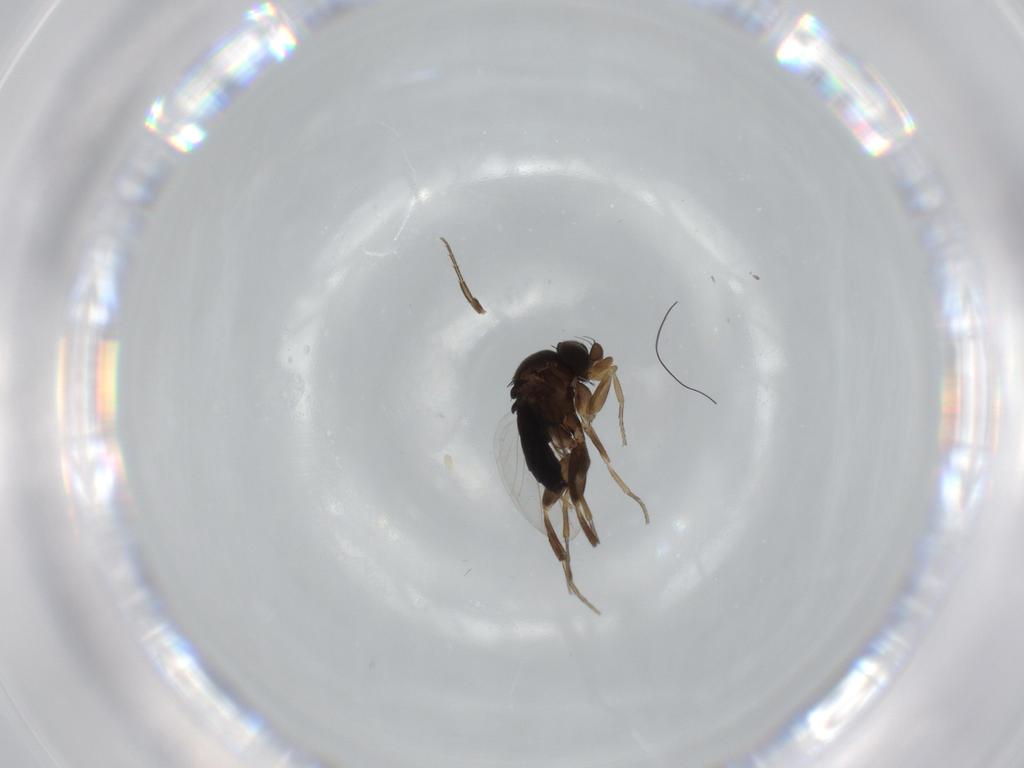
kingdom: Animalia
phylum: Arthropoda
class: Insecta
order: Diptera
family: Phoridae
